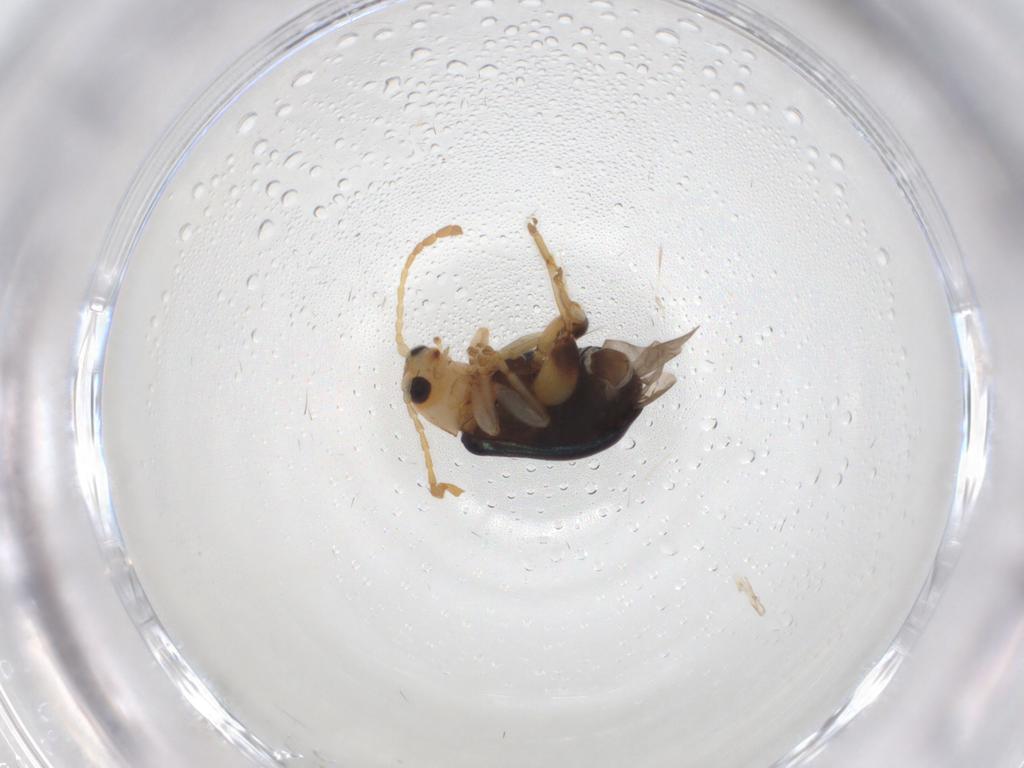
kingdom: Animalia
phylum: Arthropoda
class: Insecta
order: Coleoptera
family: Chrysomelidae
